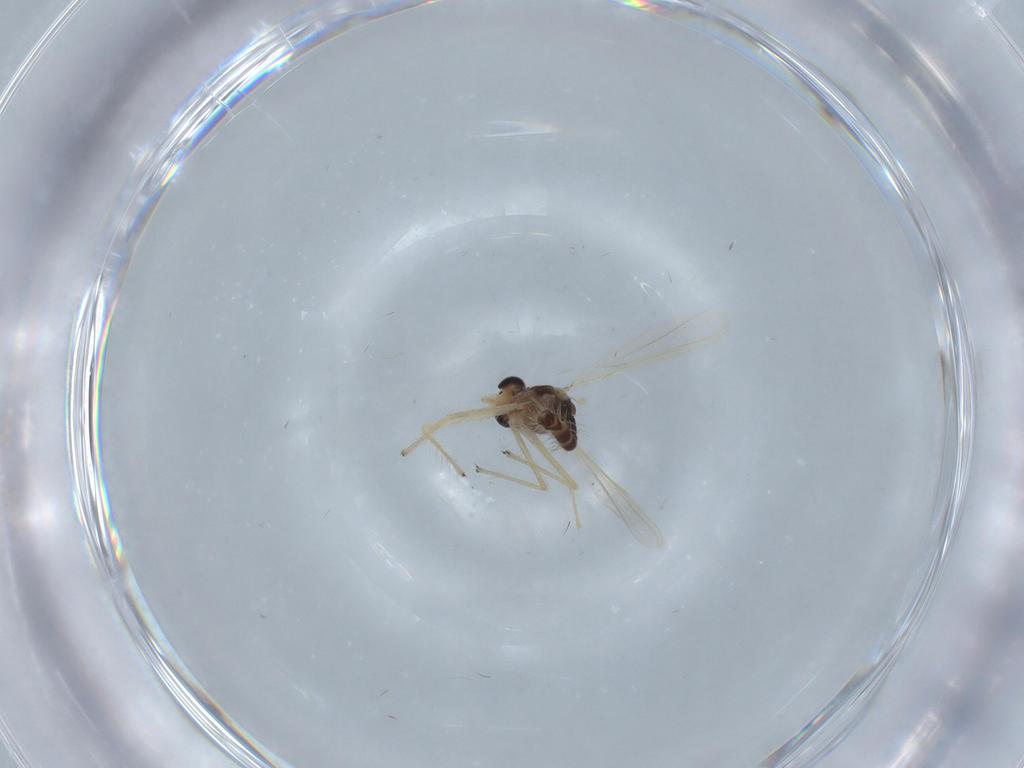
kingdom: Animalia
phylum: Arthropoda
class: Insecta
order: Diptera
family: Chironomidae
